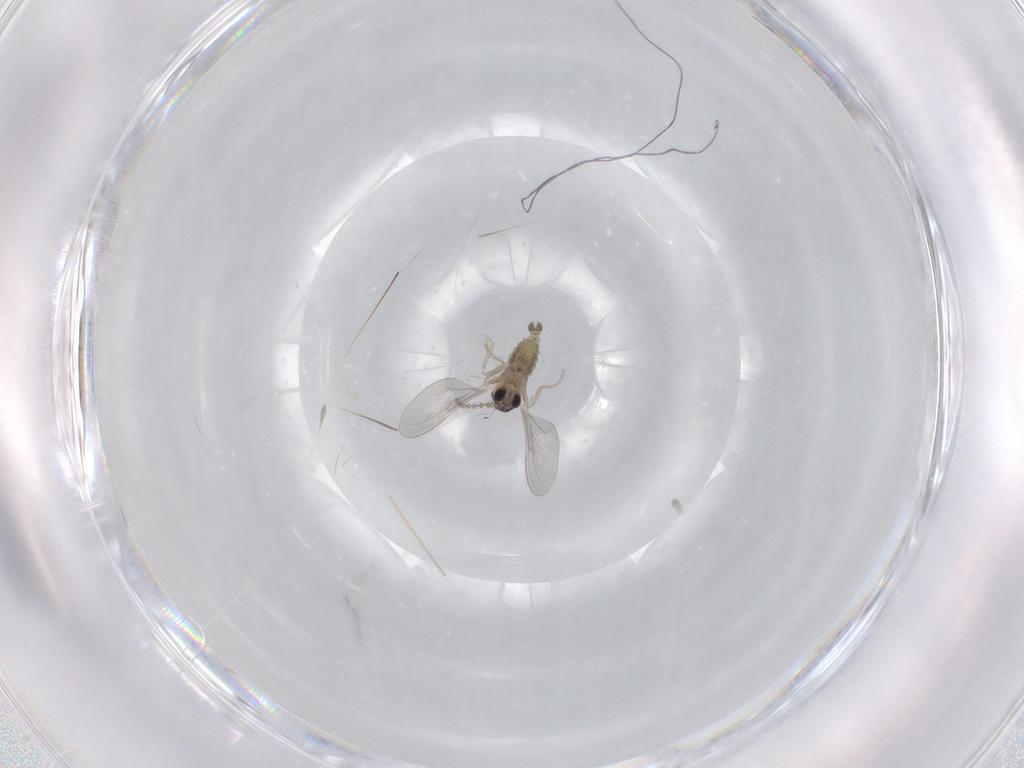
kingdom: Animalia
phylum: Arthropoda
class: Insecta
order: Diptera
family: Cecidomyiidae
